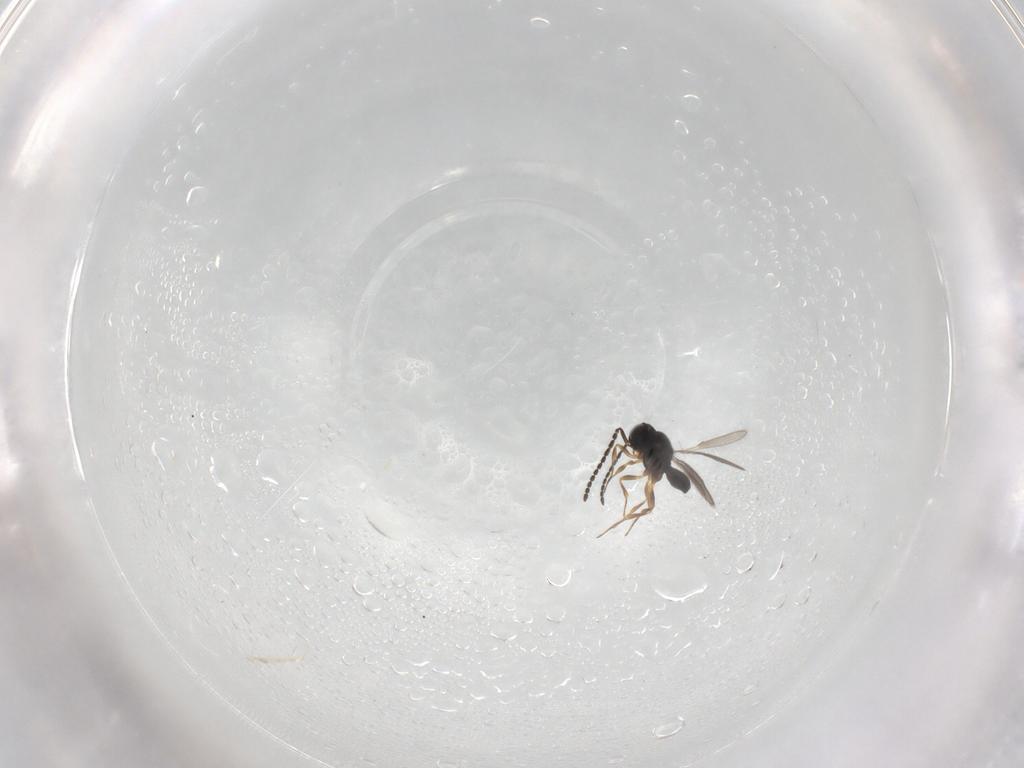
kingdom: Animalia
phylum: Arthropoda
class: Insecta
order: Hymenoptera
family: Scelionidae
